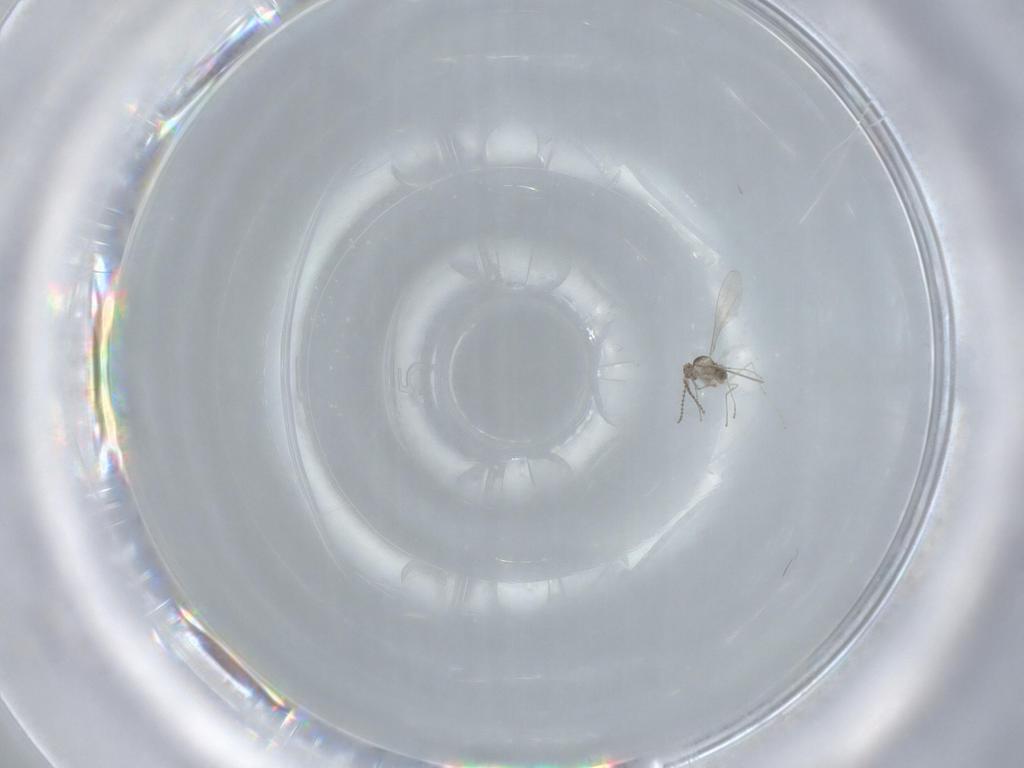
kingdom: Animalia
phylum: Arthropoda
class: Insecta
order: Diptera
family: Cecidomyiidae
